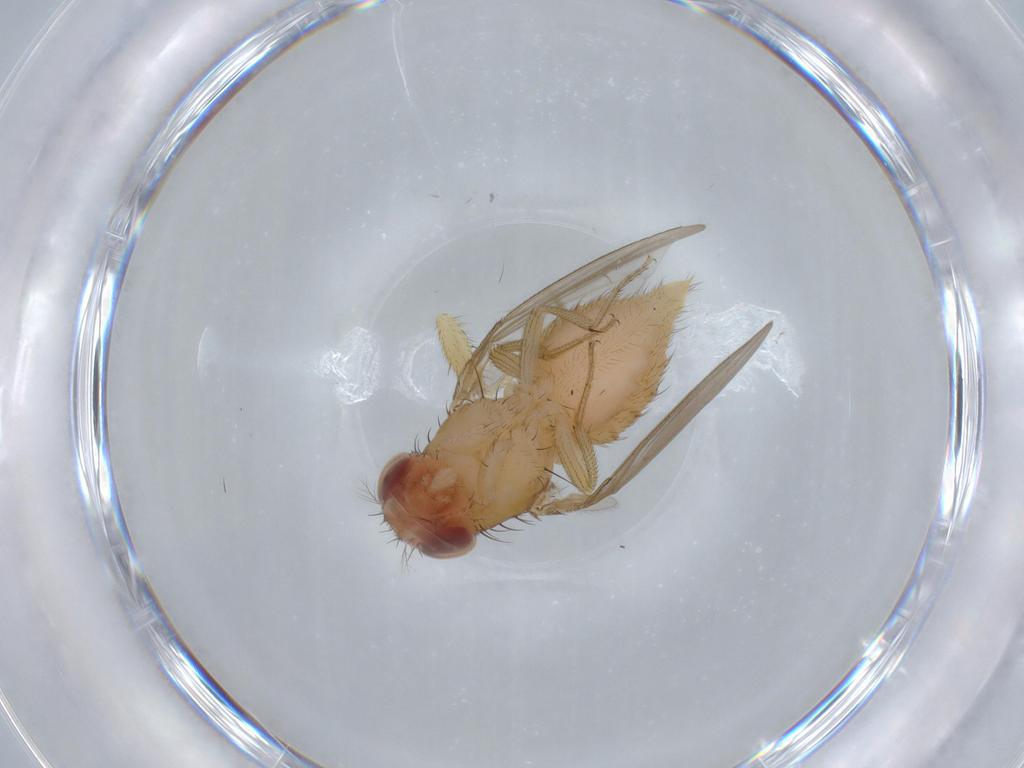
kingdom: Animalia
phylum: Arthropoda
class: Insecta
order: Diptera
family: Drosophilidae
